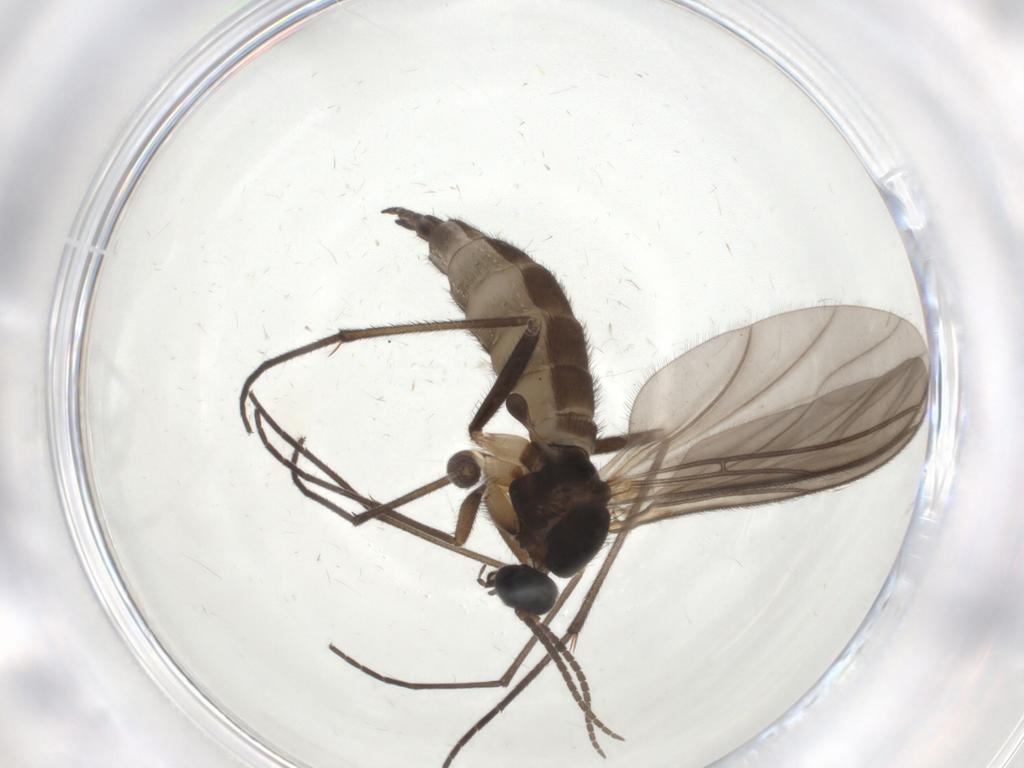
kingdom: Animalia
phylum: Arthropoda
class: Insecta
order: Diptera
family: Sciaridae
